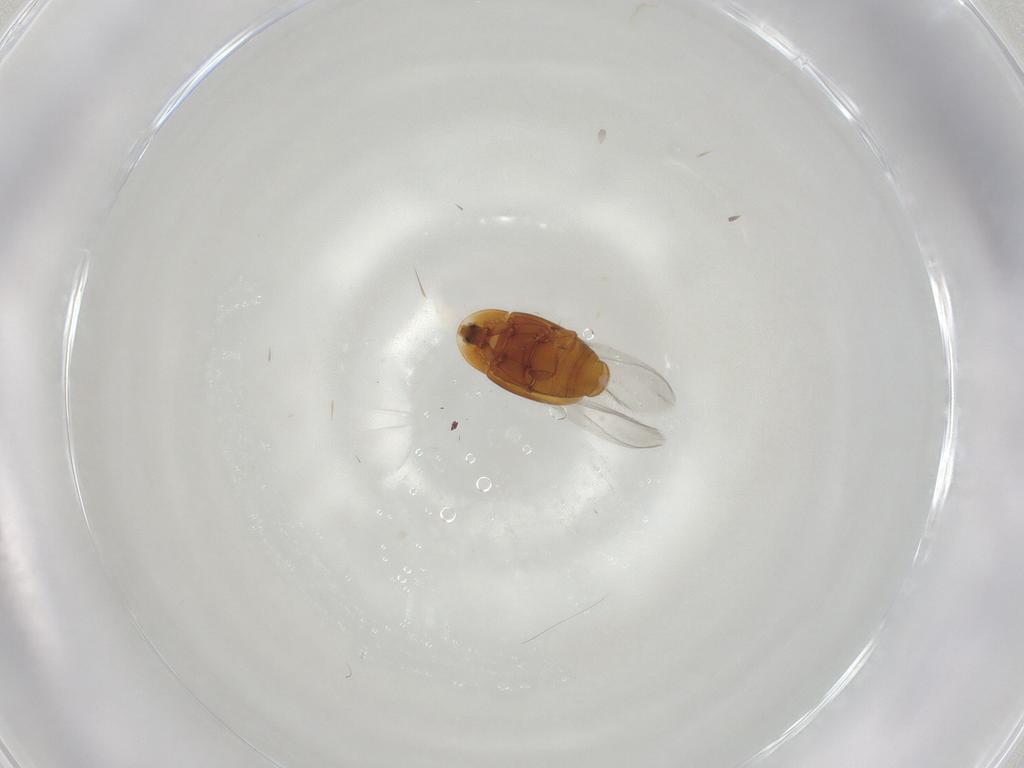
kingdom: Animalia
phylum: Arthropoda
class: Insecta
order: Coleoptera
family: Corylophidae
